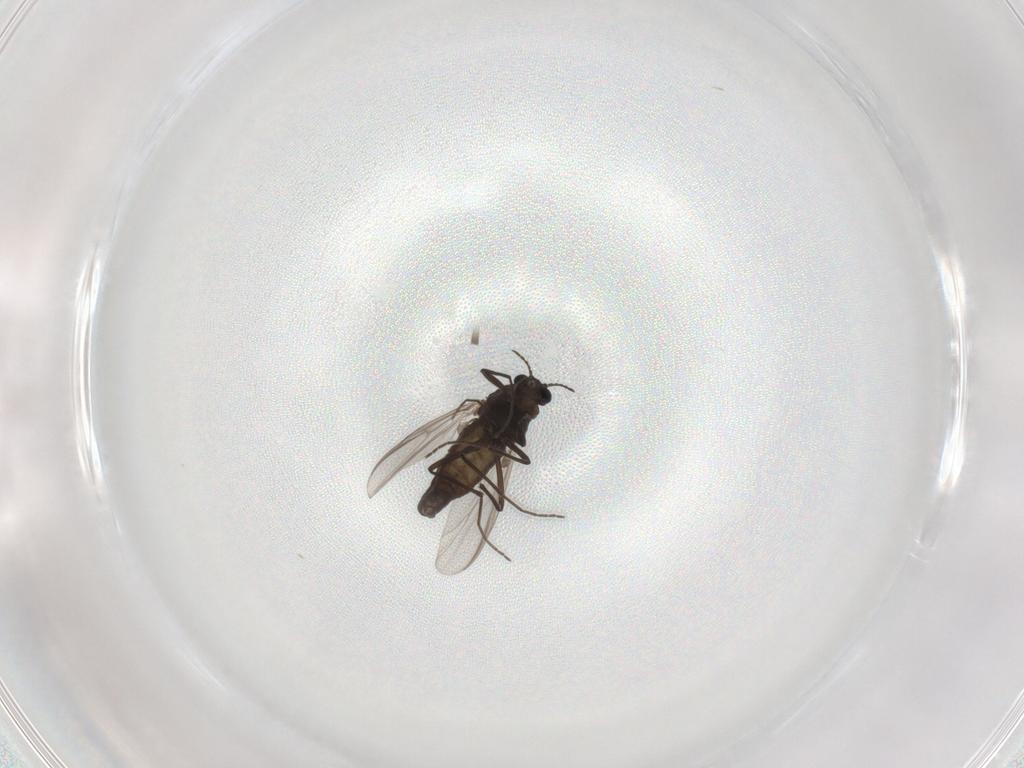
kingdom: Animalia
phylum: Arthropoda
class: Insecta
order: Diptera
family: Chironomidae
